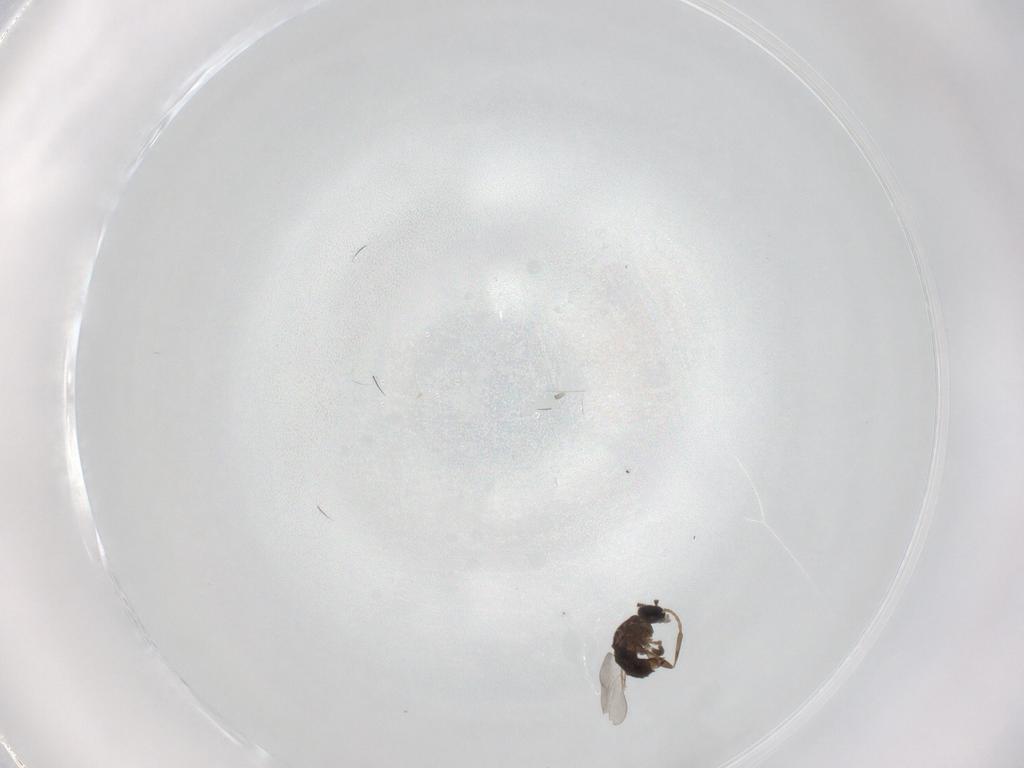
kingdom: Animalia
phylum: Arthropoda
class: Insecta
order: Diptera
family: Scatopsidae
